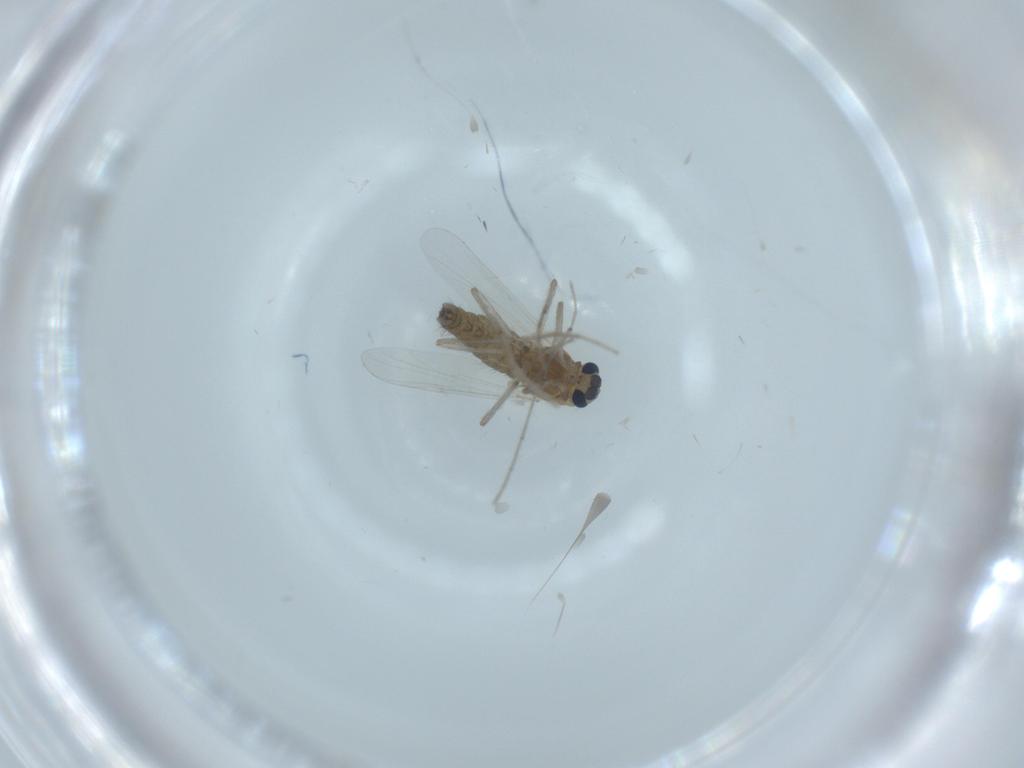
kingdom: Animalia
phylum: Arthropoda
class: Insecta
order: Diptera
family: Chironomidae
